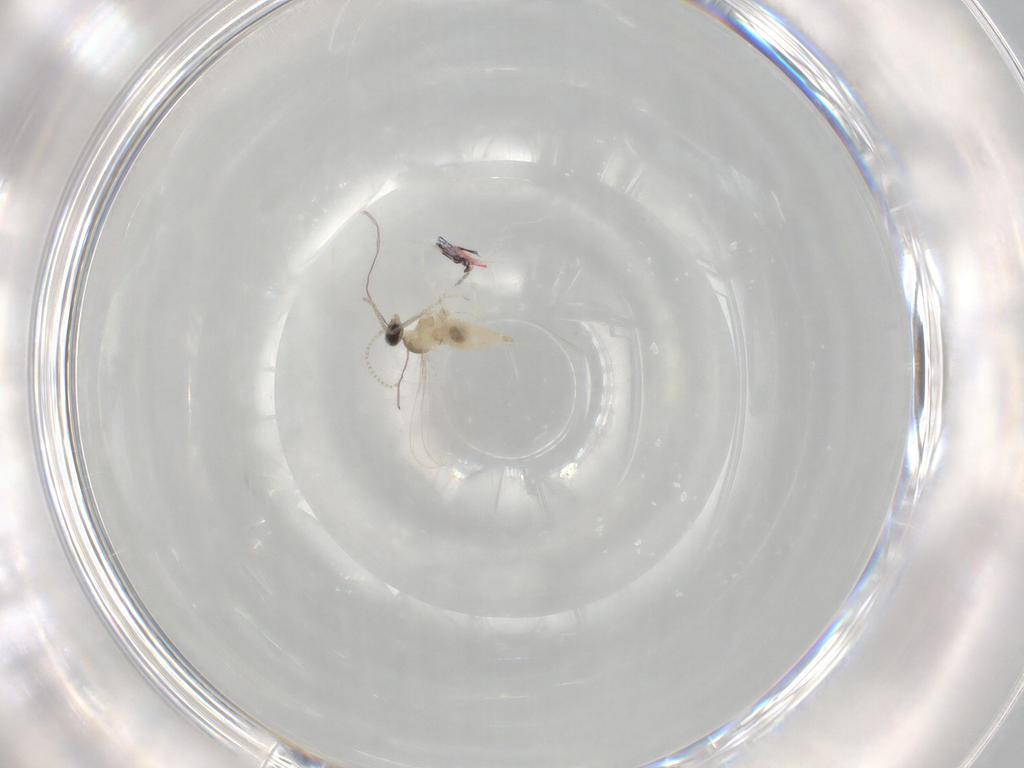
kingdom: Animalia
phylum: Arthropoda
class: Insecta
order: Diptera
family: Cecidomyiidae
